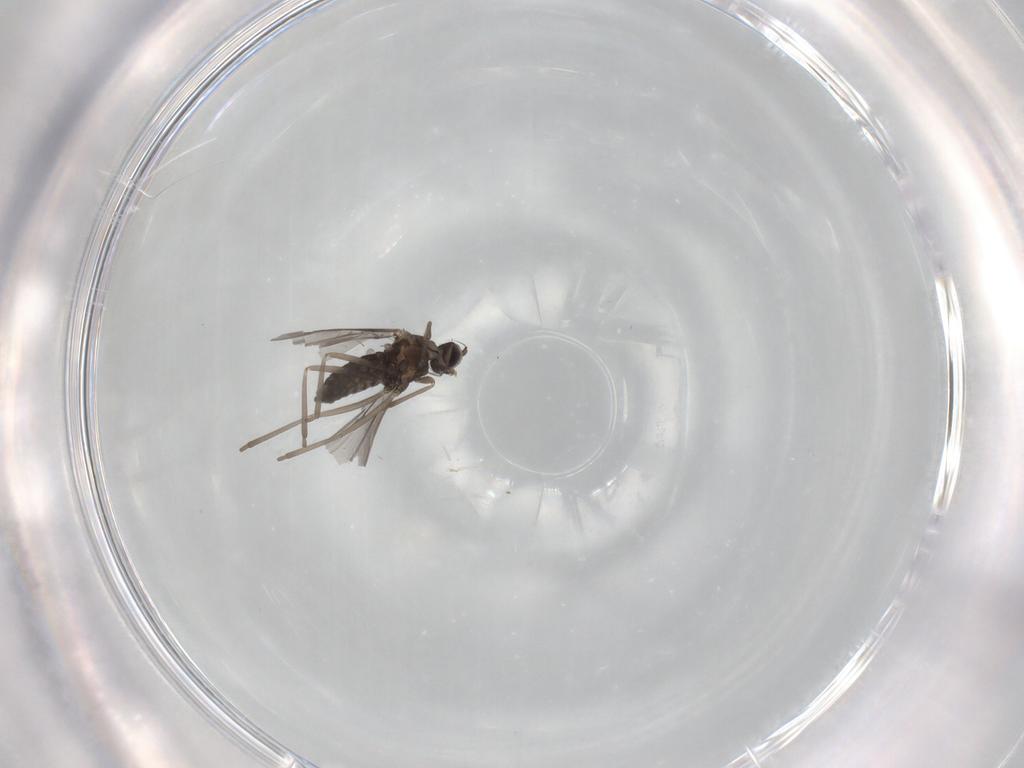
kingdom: Animalia
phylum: Arthropoda
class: Insecta
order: Diptera
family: Cecidomyiidae
